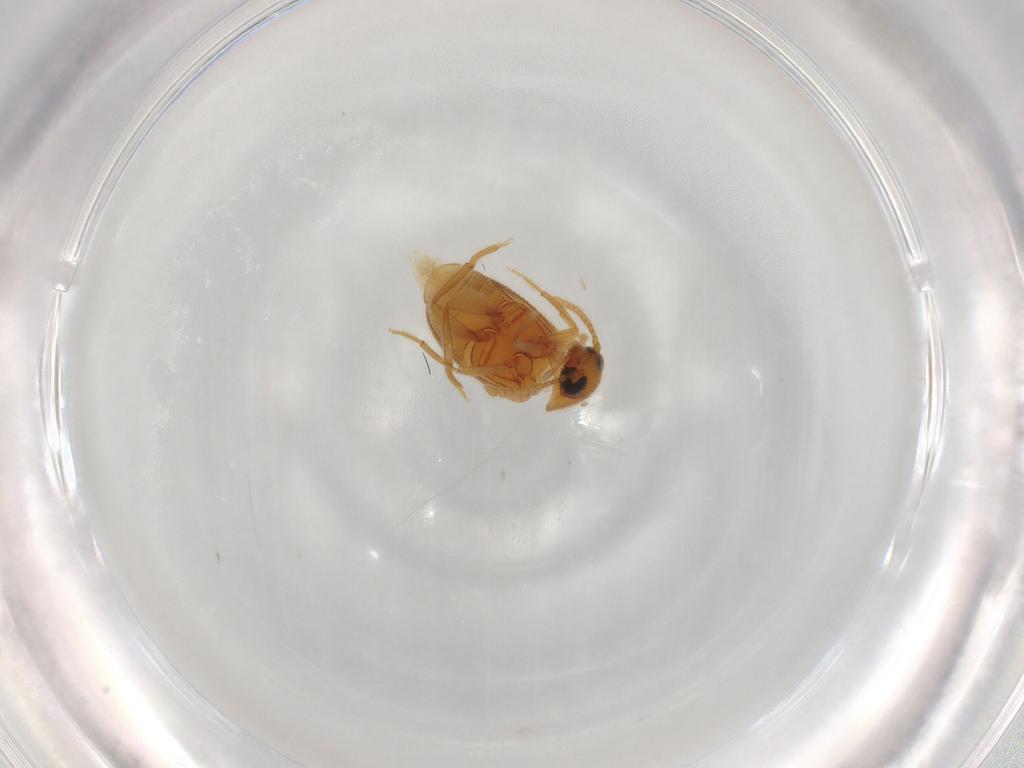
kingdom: Animalia
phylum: Arthropoda
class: Insecta
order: Coleoptera
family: Aderidae
